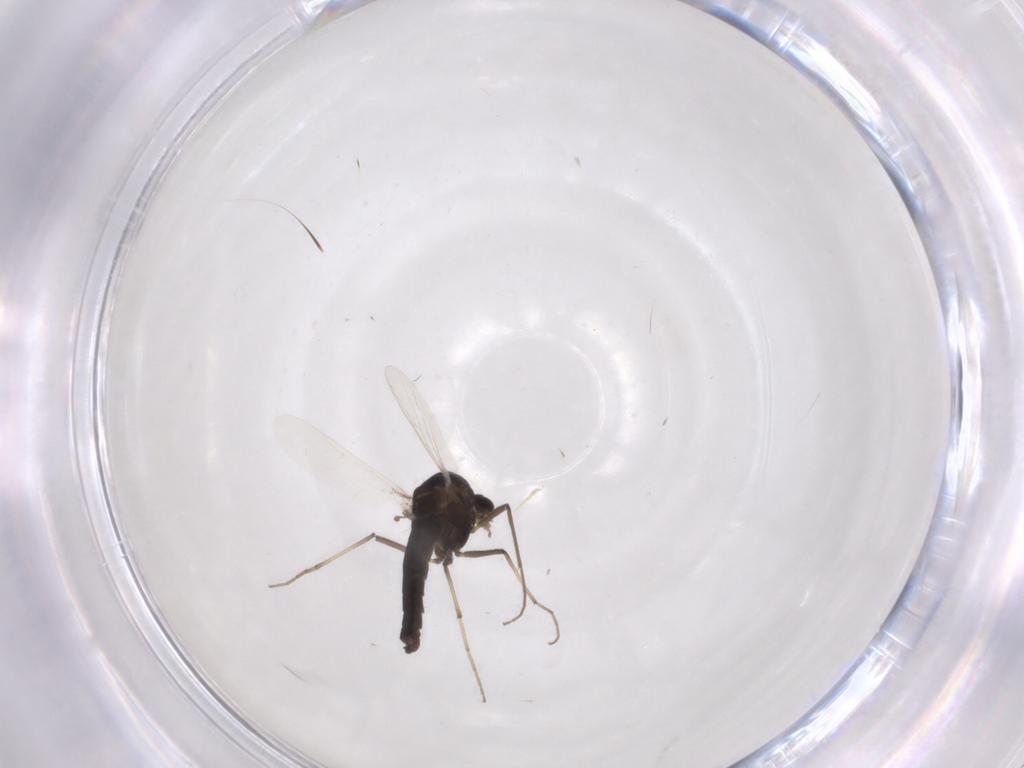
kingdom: Animalia
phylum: Arthropoda
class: Insecta
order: Diptera
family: Chironomidae
